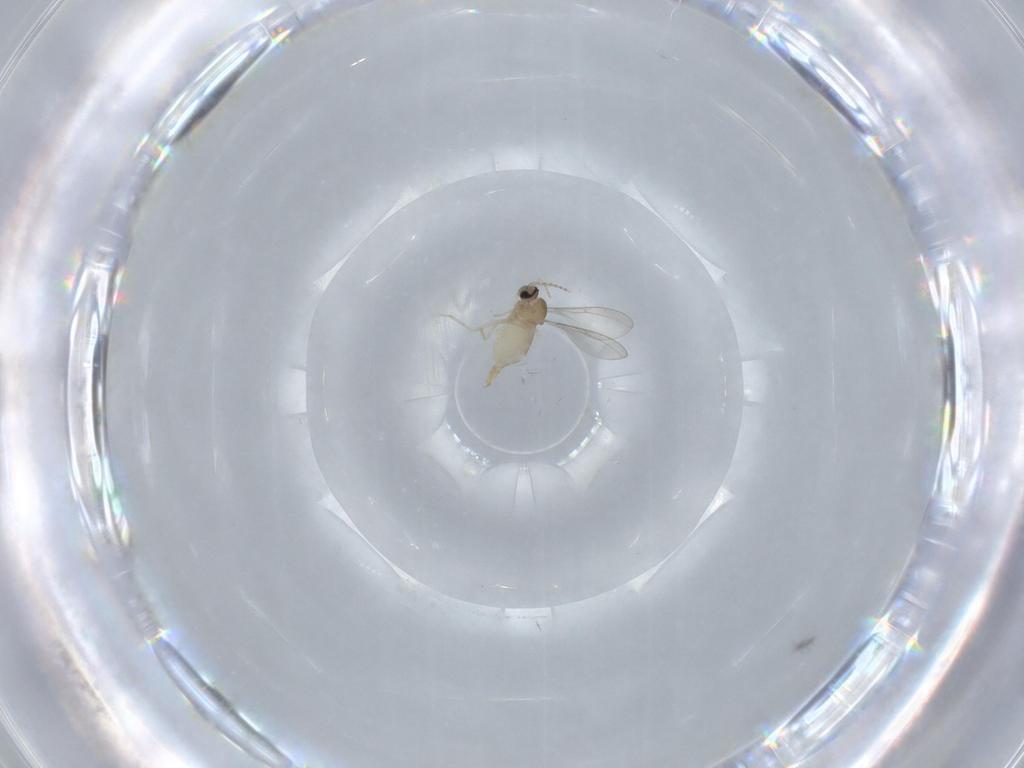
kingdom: Animalia
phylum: Arthropoda
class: Insecta
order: Diptera
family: Cecidomyiidae
